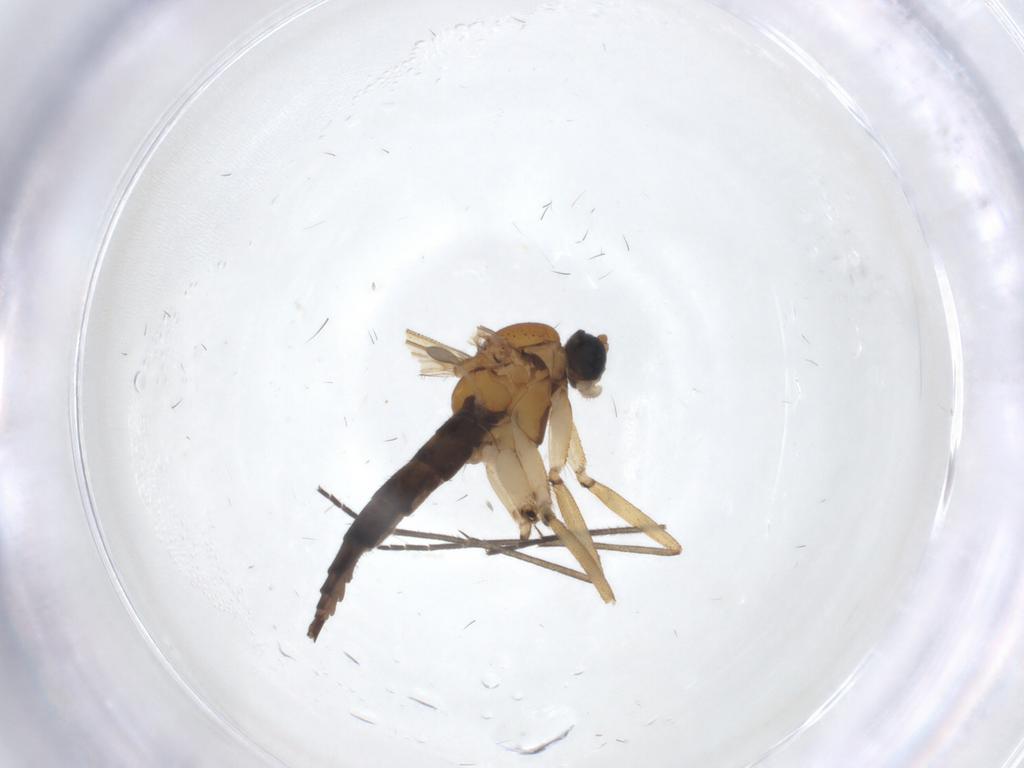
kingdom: Animalia
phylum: Arthropoda
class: Insecta
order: Diptera
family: Sciaridae
